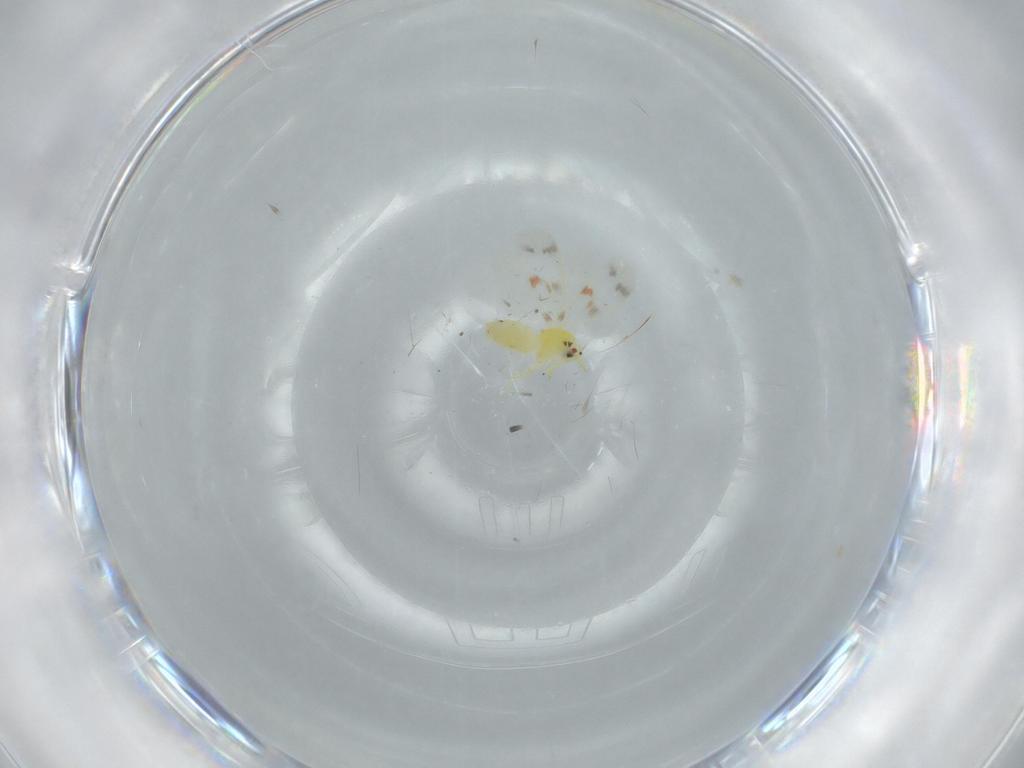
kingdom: Animalia
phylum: Arthropoda
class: Insecta
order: Hemiptera
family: Aleyrodidae
